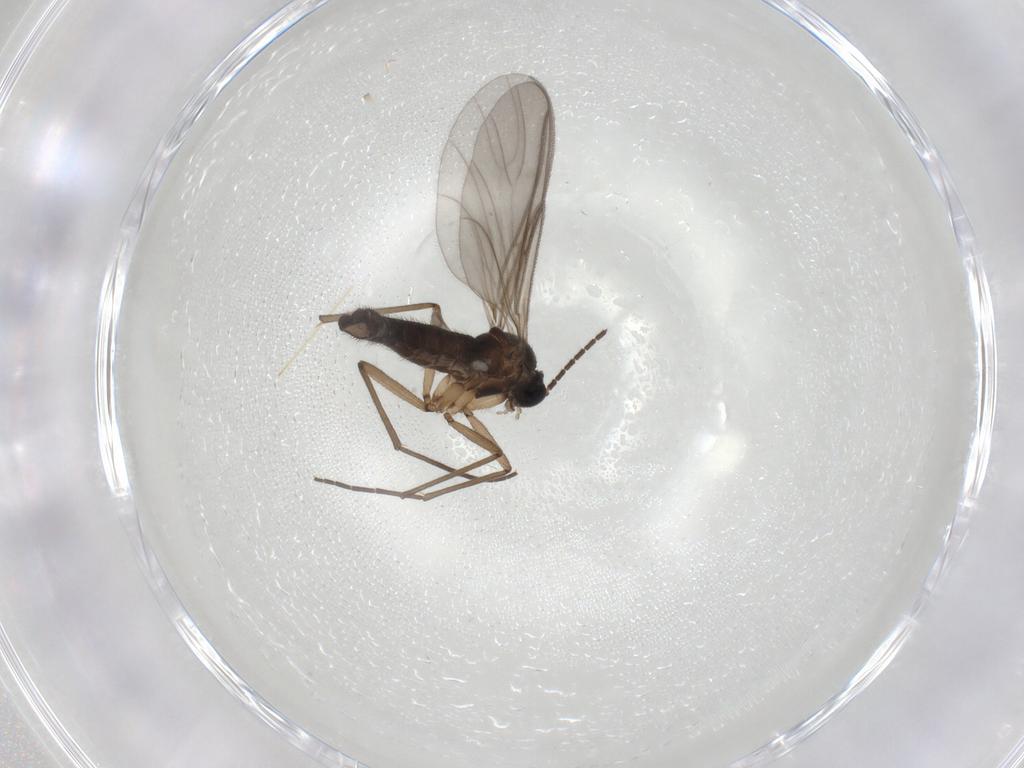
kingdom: Animalia
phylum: Arthropoda
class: Insecta
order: Diptera
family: Sciaridae
